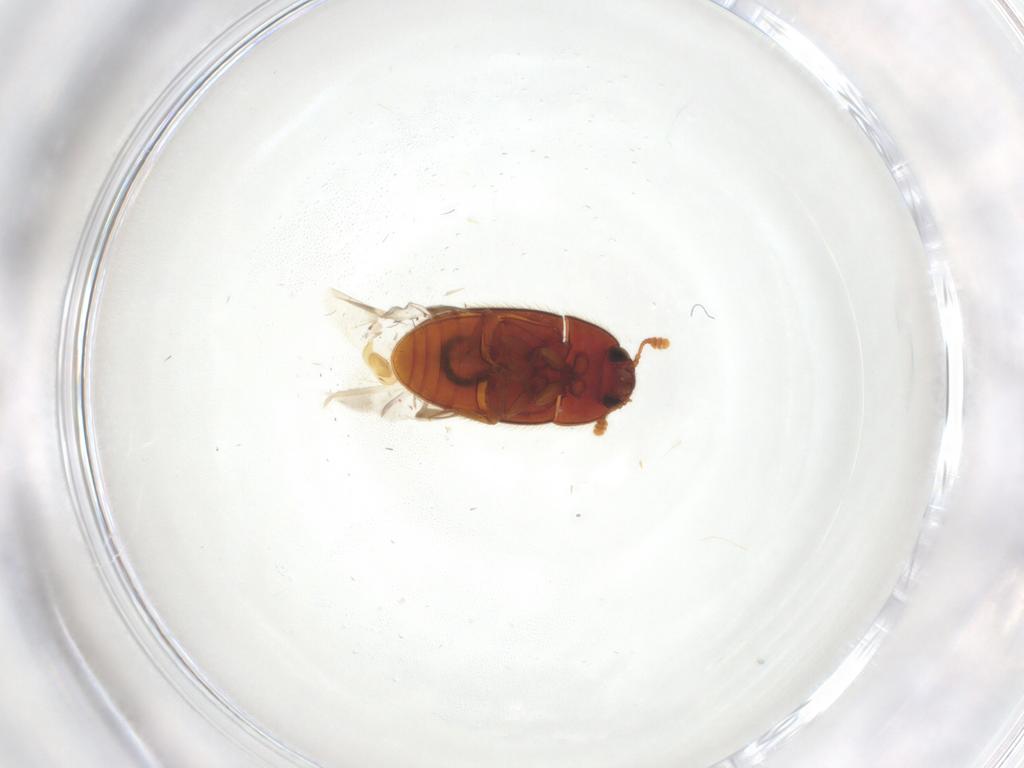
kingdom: Animalia
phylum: Arthropoda
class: Insecta
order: Coleoptera
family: Biphyllidae
